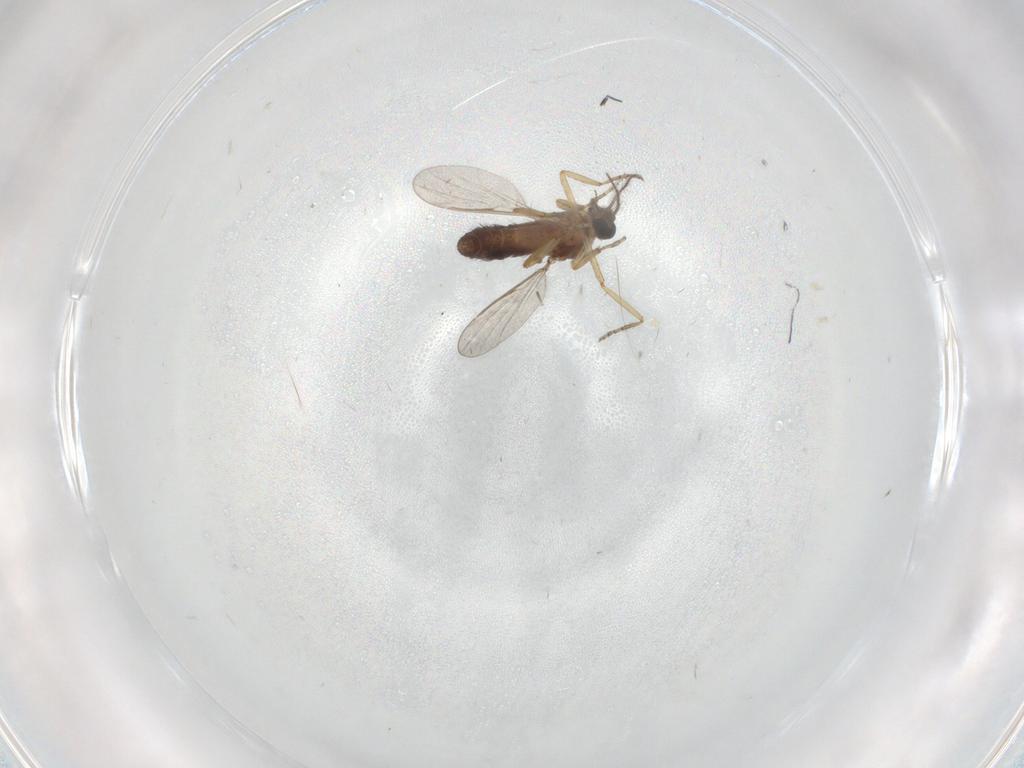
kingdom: Animalia
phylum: Arthropoda
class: Insecta
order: Diptera
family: Ceratopogonidae
